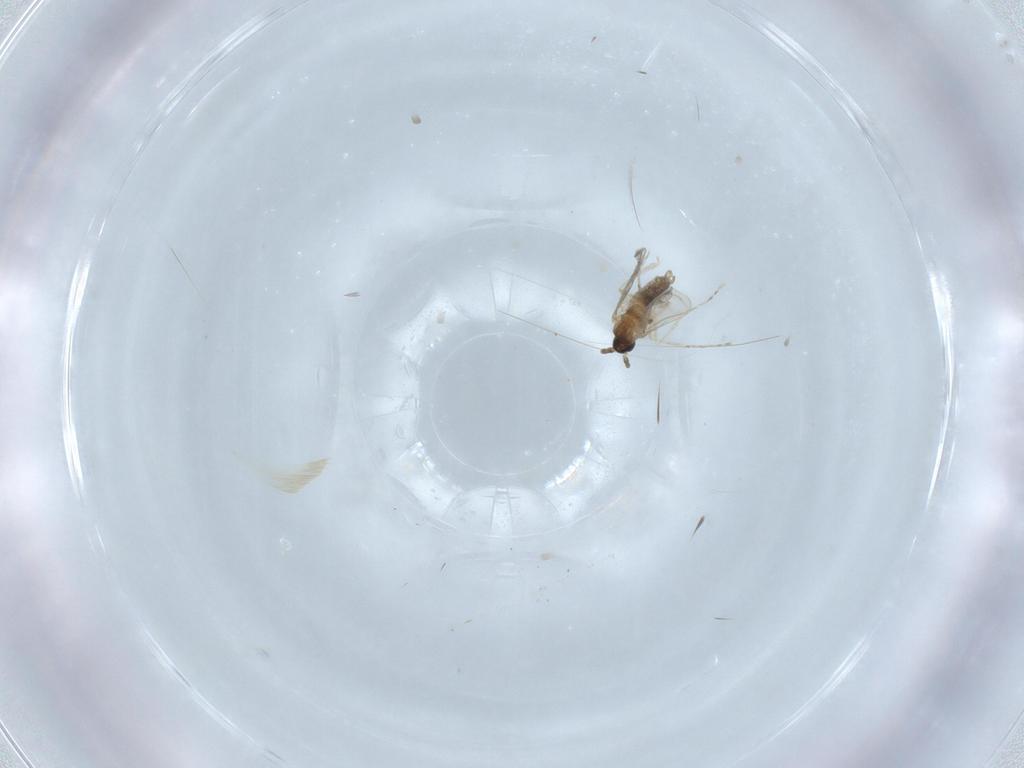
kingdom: Animalia
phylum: Arthropoda
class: Insecta
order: Diptera
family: Cecidomyiidae
